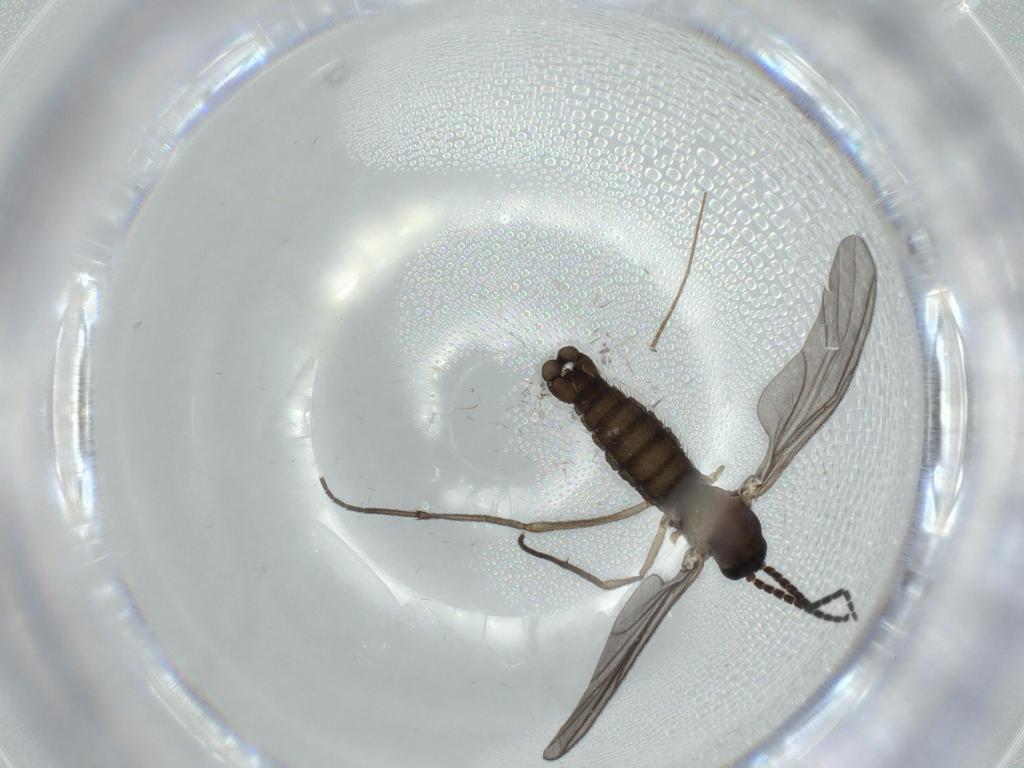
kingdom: Animalia
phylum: Arthropoda
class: Insecta
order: Diptera
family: Sciaridae
